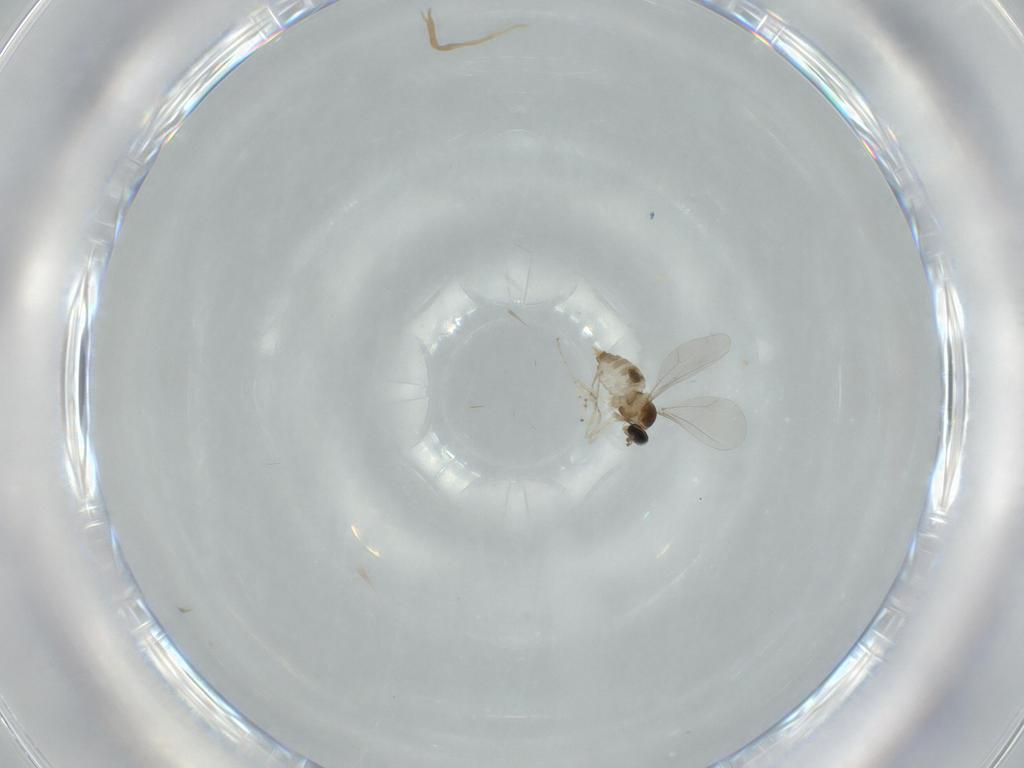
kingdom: Animalia
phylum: Arthropoda
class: Insecta
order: Diptera
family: Cecidomyiidae
